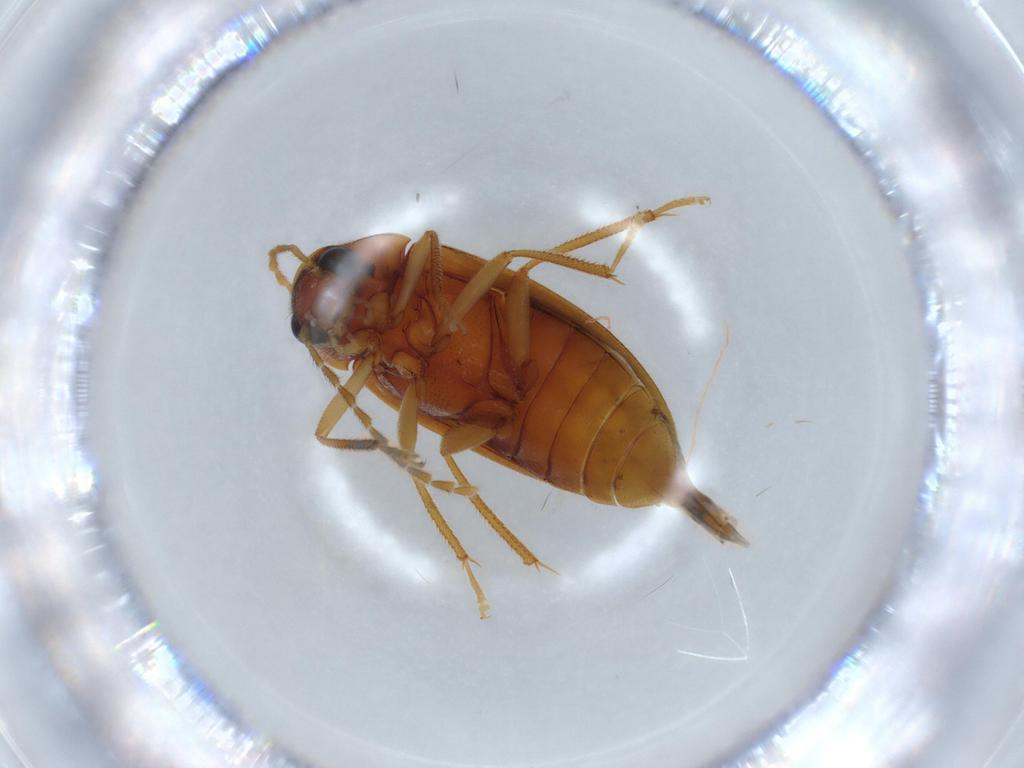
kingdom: Animalia
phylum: Arthropoda
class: Insecta
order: Coleoptera
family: Ptilodactylidae
